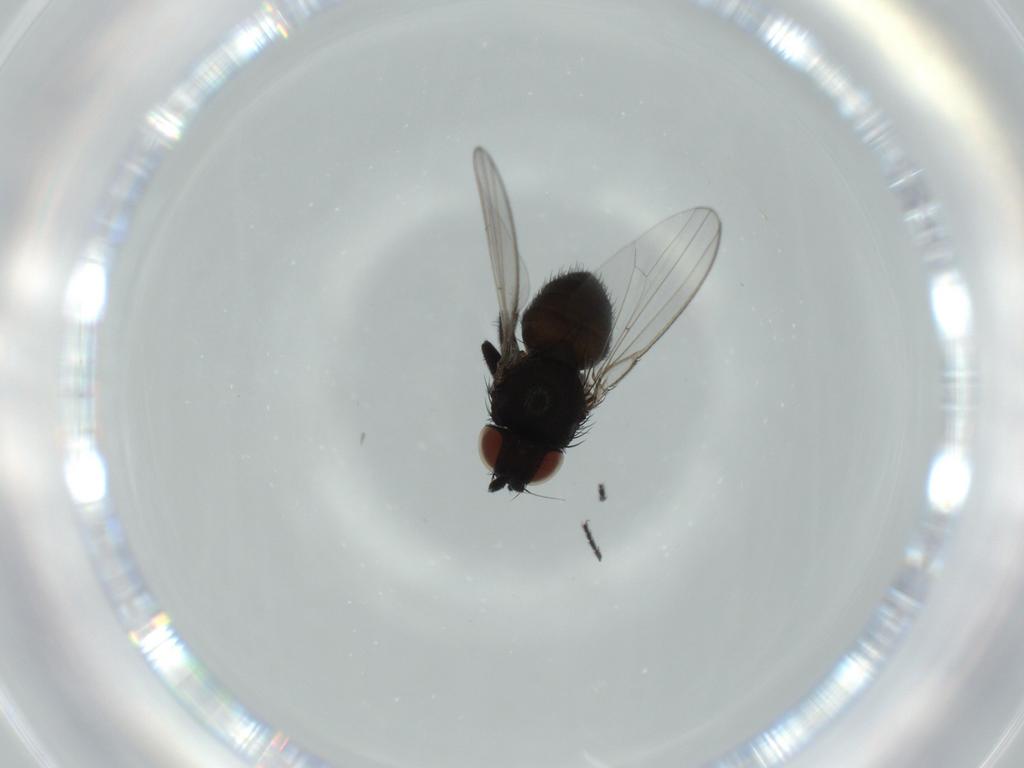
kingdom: Animalia
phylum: Arthropoda
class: Insecta
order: Diptera
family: Milichiidae
